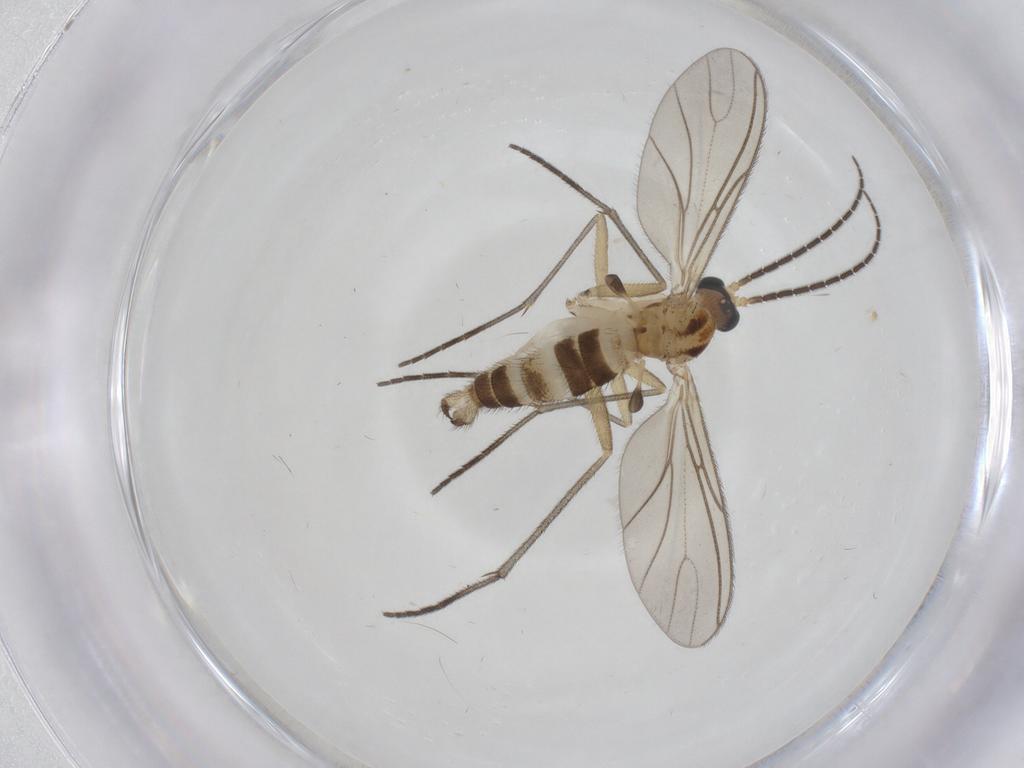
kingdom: Animalia
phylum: Arthropoda
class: Insecta
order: Diptera
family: Sciaridae
